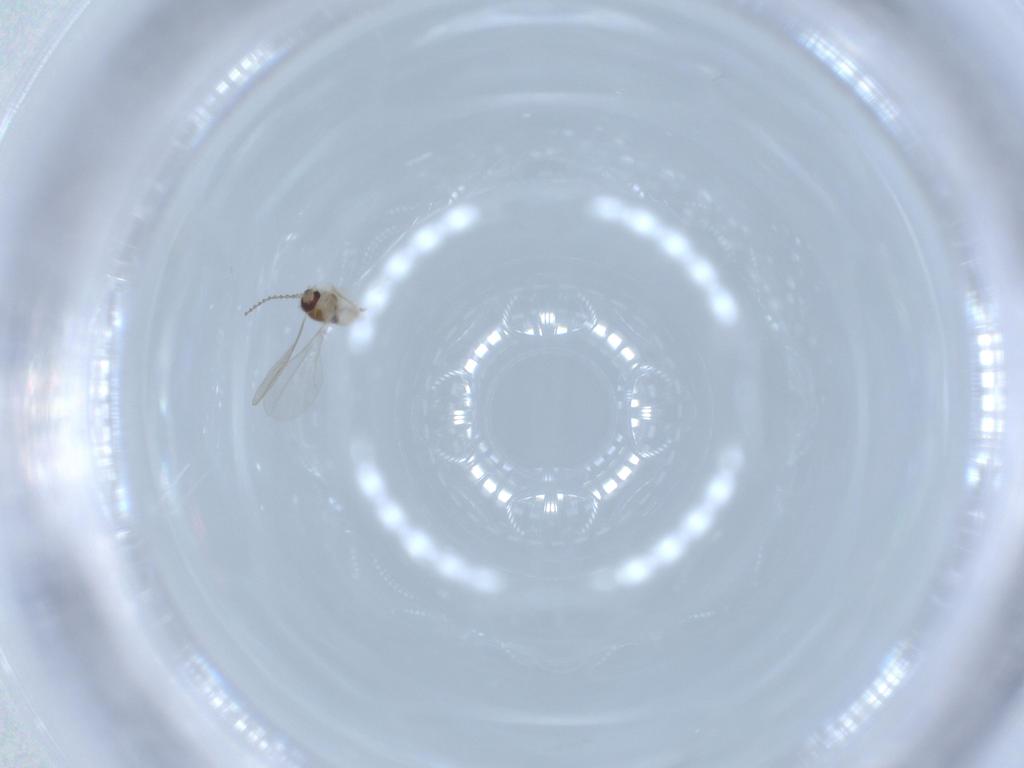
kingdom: Animalia
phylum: Arthropoda
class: Insecta
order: Diptera
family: Cecidomyiidae
